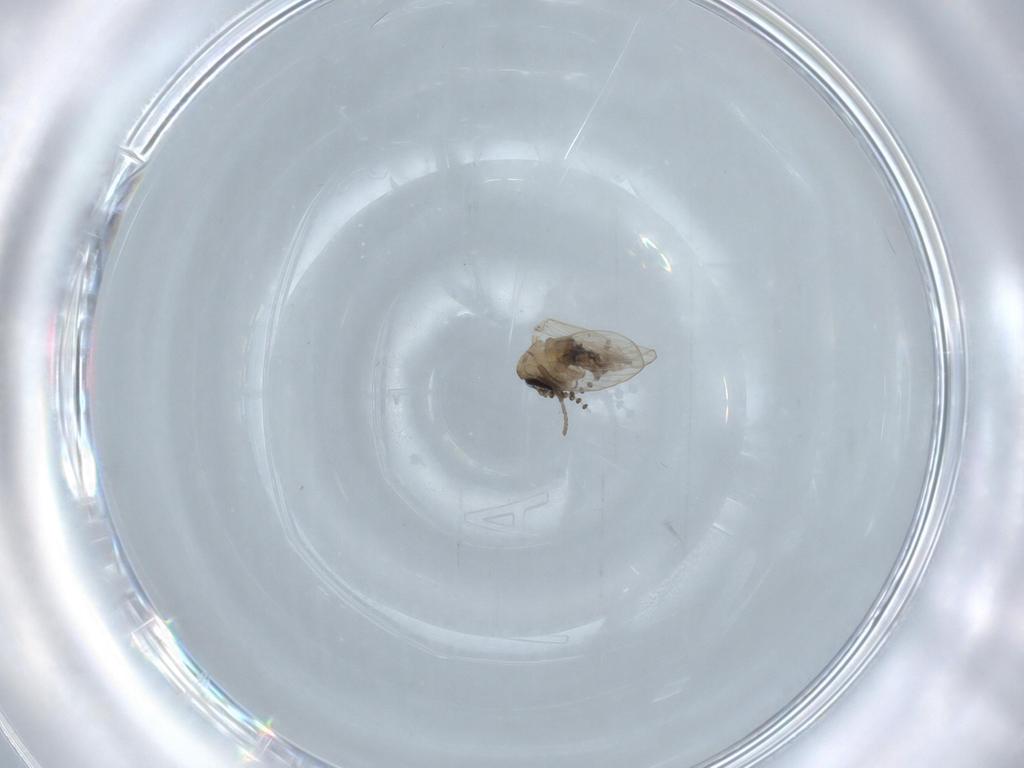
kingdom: Animalia
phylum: Arthropoda
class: Insecta
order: Diptera
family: Psychodidae
